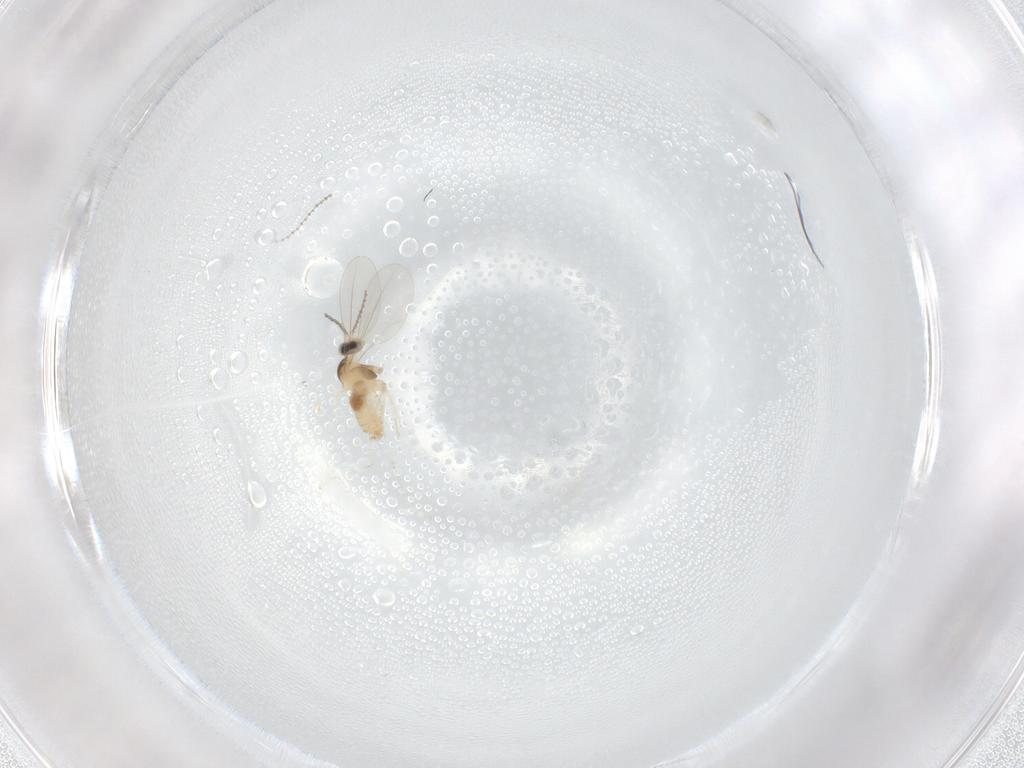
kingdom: Animalia
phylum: Arthropoda
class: Insecta
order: Diptera
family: Cecidomyiidae
